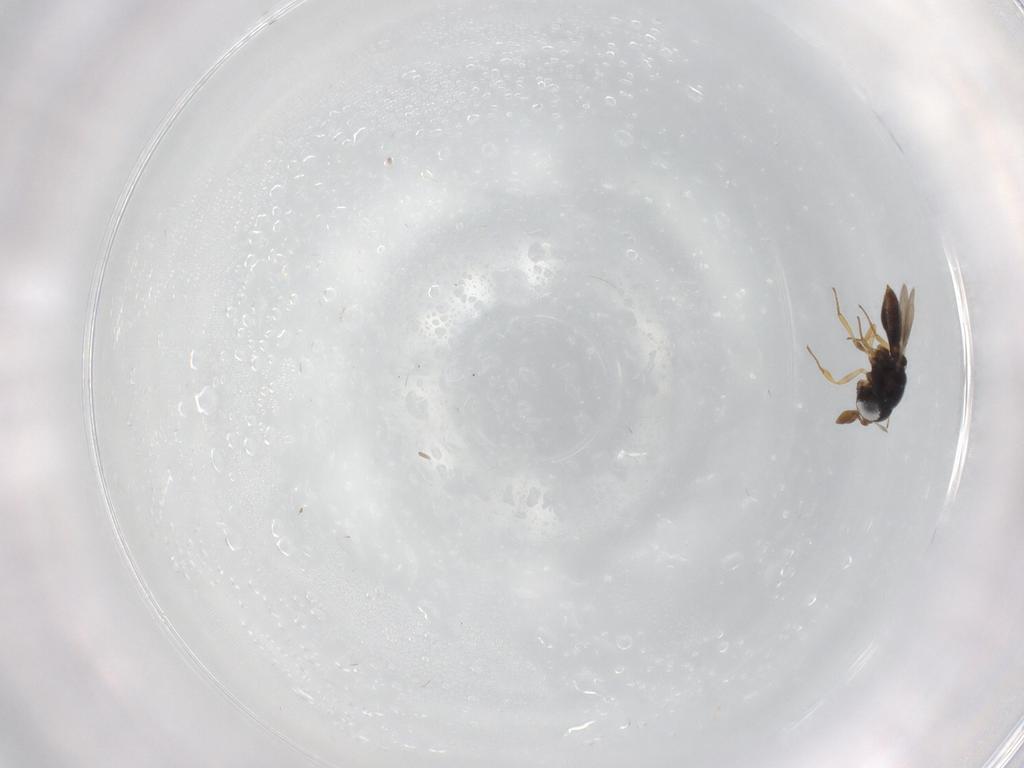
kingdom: Animalia
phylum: Arthropoda
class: Insecta
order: Hymenoptera
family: Scelionidae
